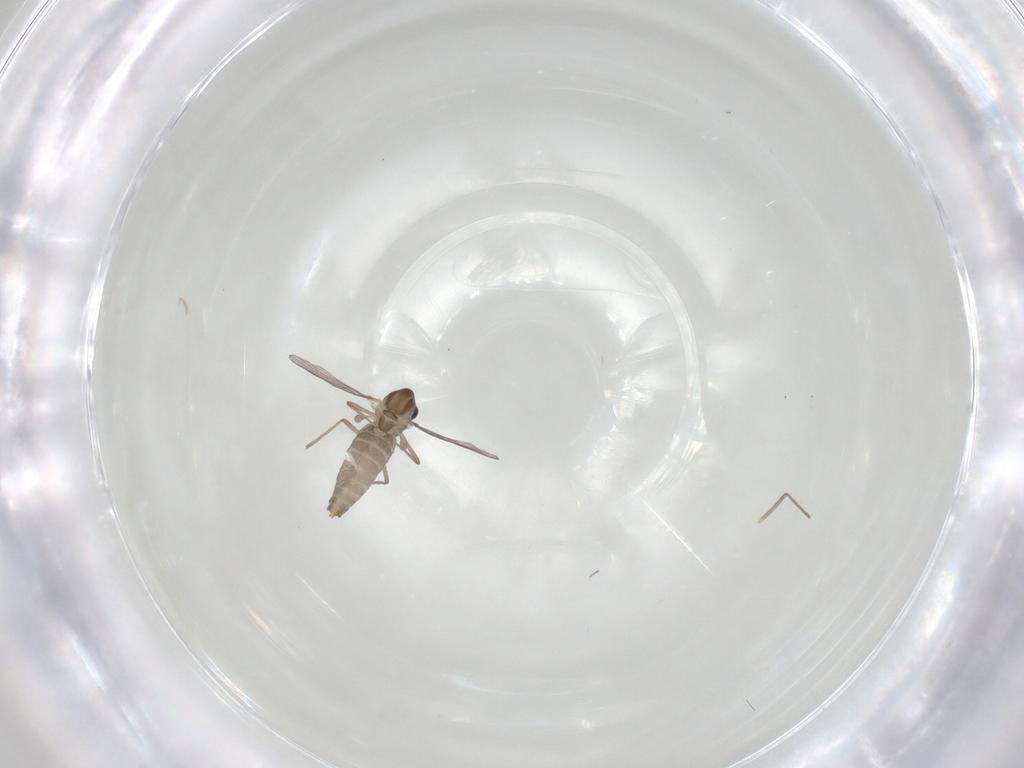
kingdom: Animalia
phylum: Arthropoda
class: Insecta
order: Diptera
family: Chironomidae
